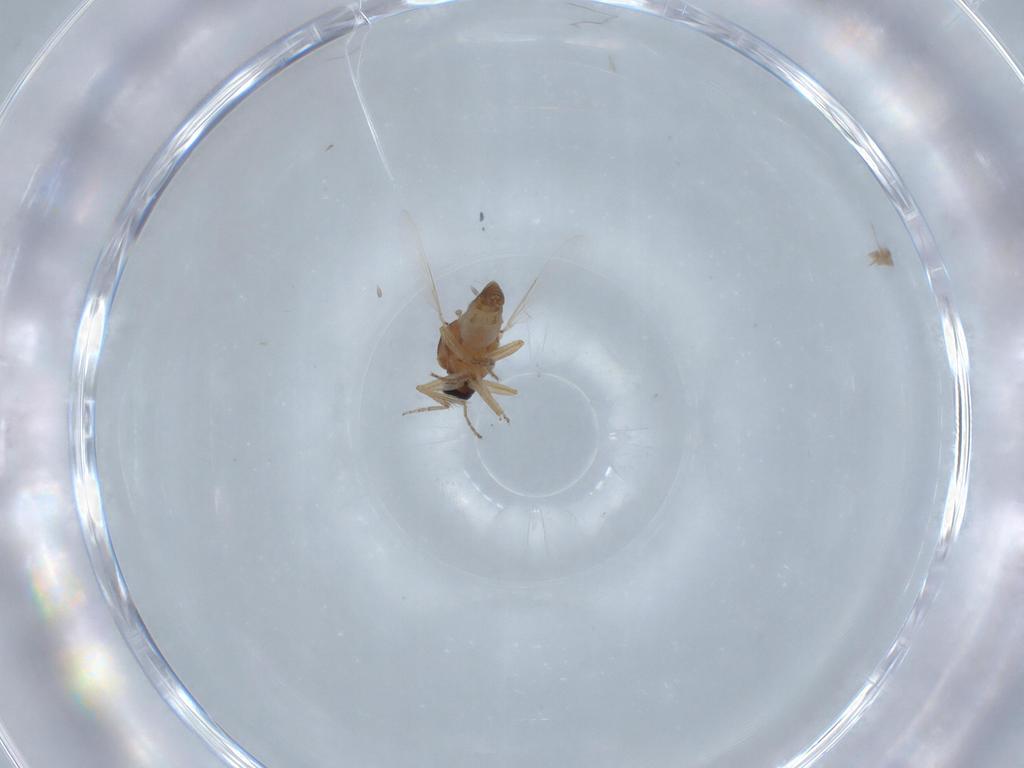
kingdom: Animalia
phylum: Arthropoda
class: Insecta
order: Diptera
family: Ceratopogonidae
